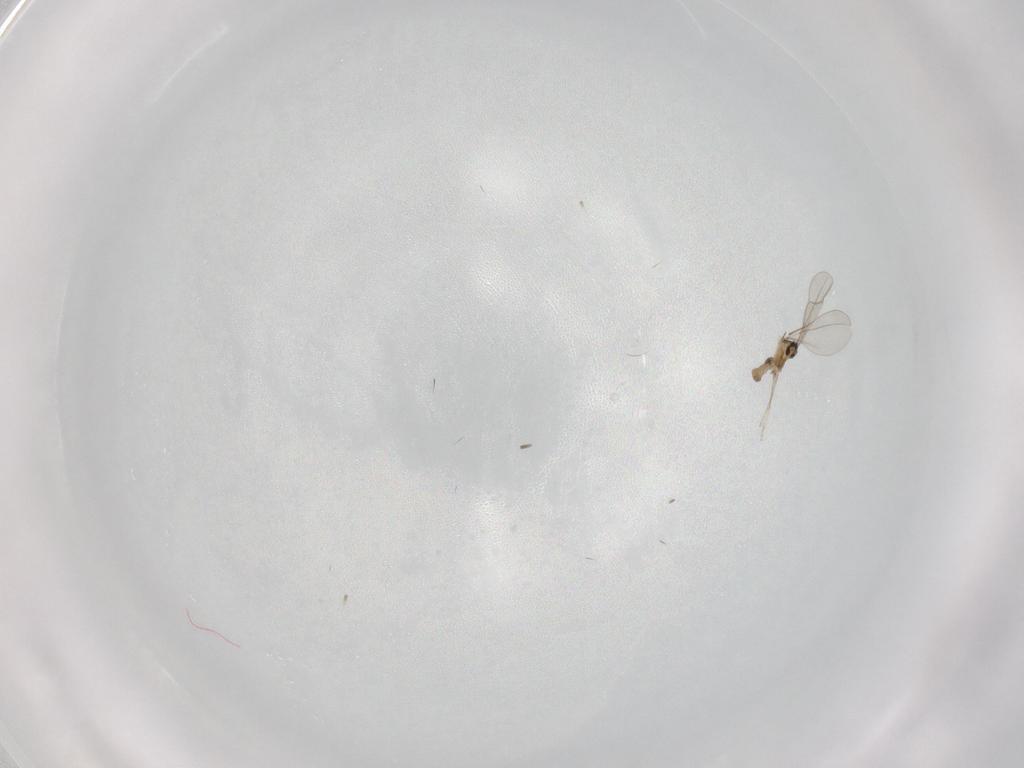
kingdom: Animalia
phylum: Arthropoda
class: Insecta
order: Diptera
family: Cecidomyiidae
